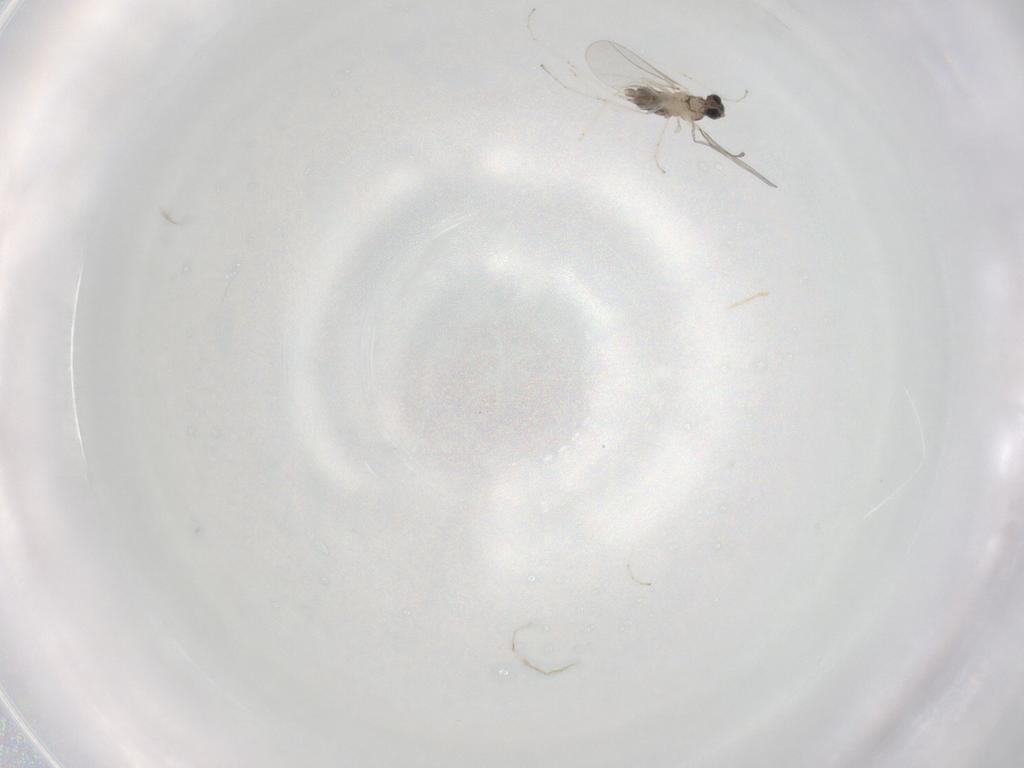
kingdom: Animalia
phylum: Arthropoda
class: Insecta
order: Diptera
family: Cecidomyiidae
